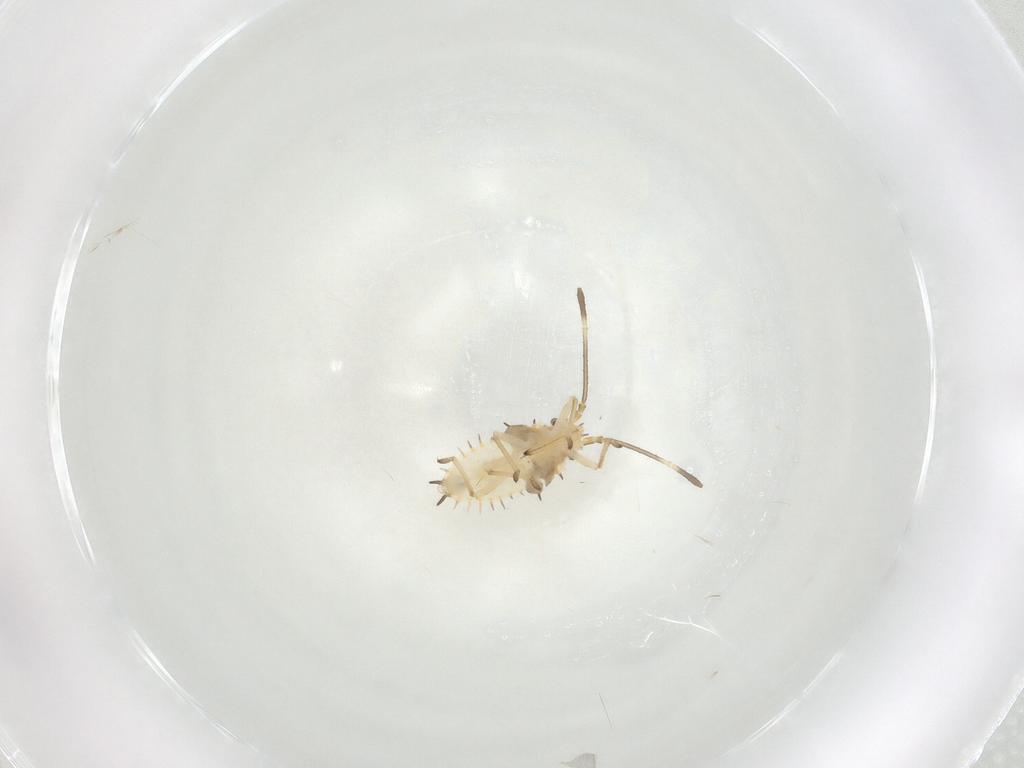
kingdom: Animalia
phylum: Arthropoda
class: Insecta
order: Hemiptera
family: Tingidae
